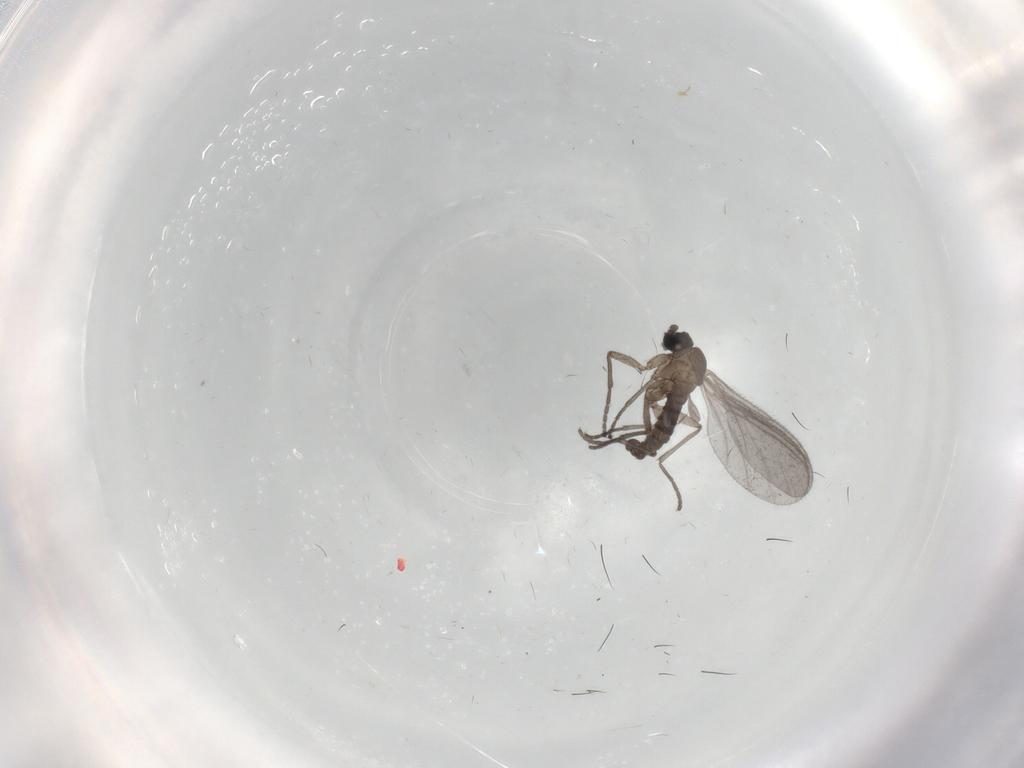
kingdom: Animalia
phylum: Arthropoda
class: Insecta
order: Diptera
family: Sciaridae
